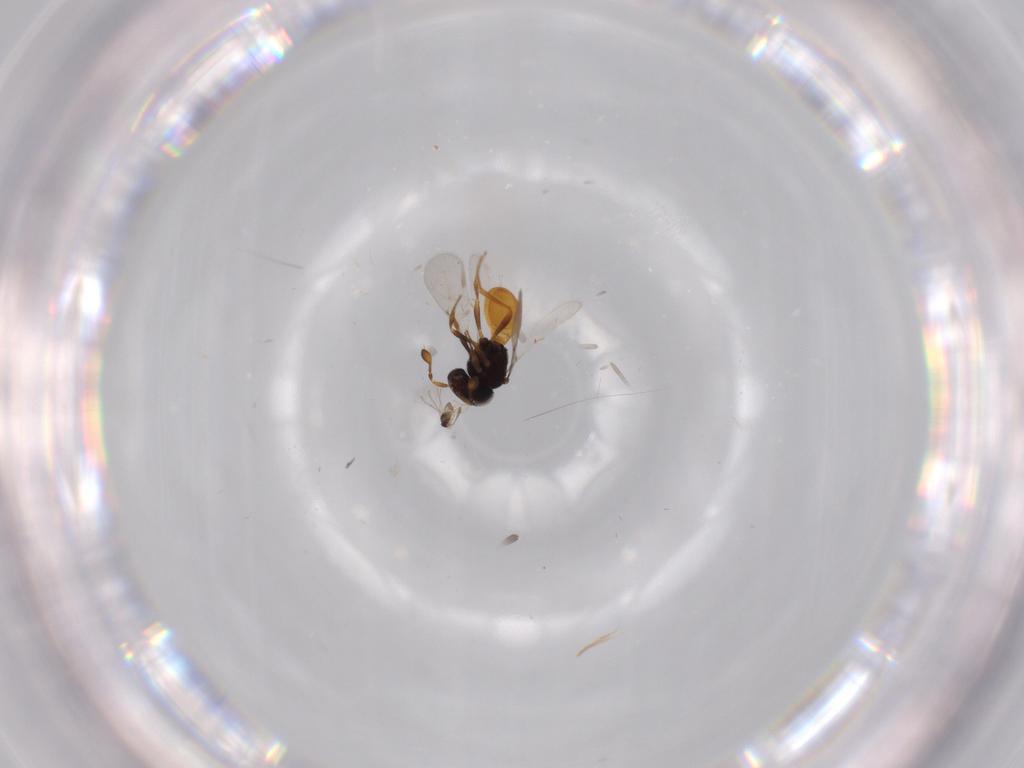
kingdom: Animalia
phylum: Arthropoda
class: Insecta
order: Hymenoptera
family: Scelionidae
